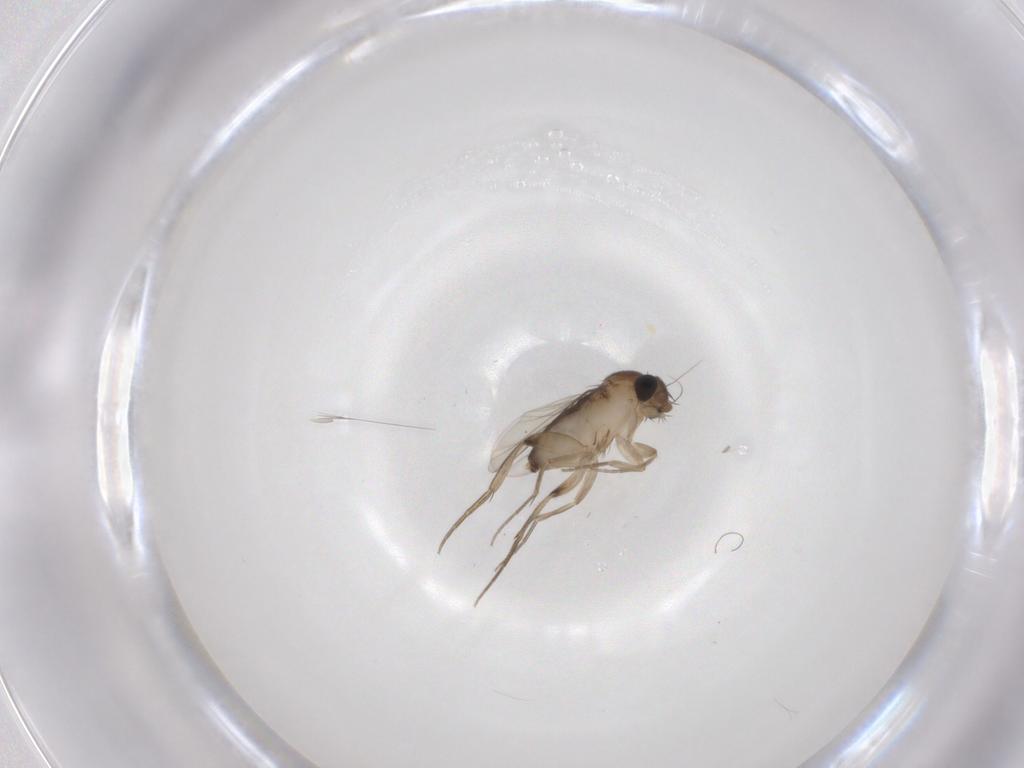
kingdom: Animalia
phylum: Arthropoda
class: Insecta
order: Diptera
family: Phoridae
